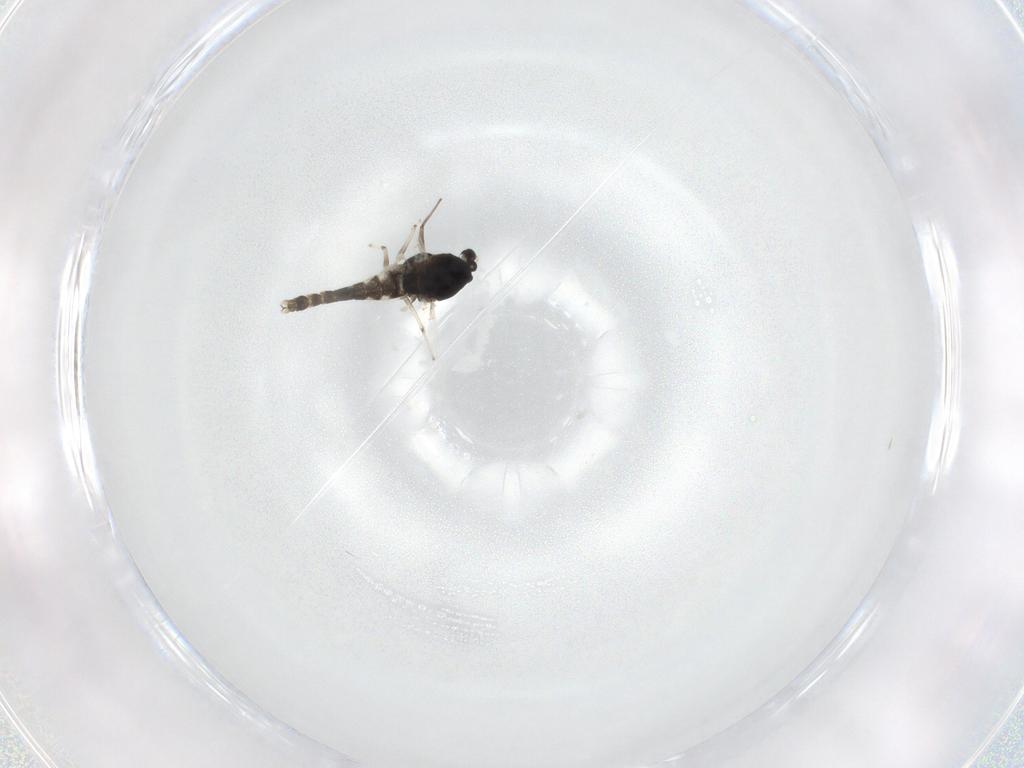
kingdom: Animalia
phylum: Arthropoda
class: Insecta
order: Diptera
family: Chironomidae
